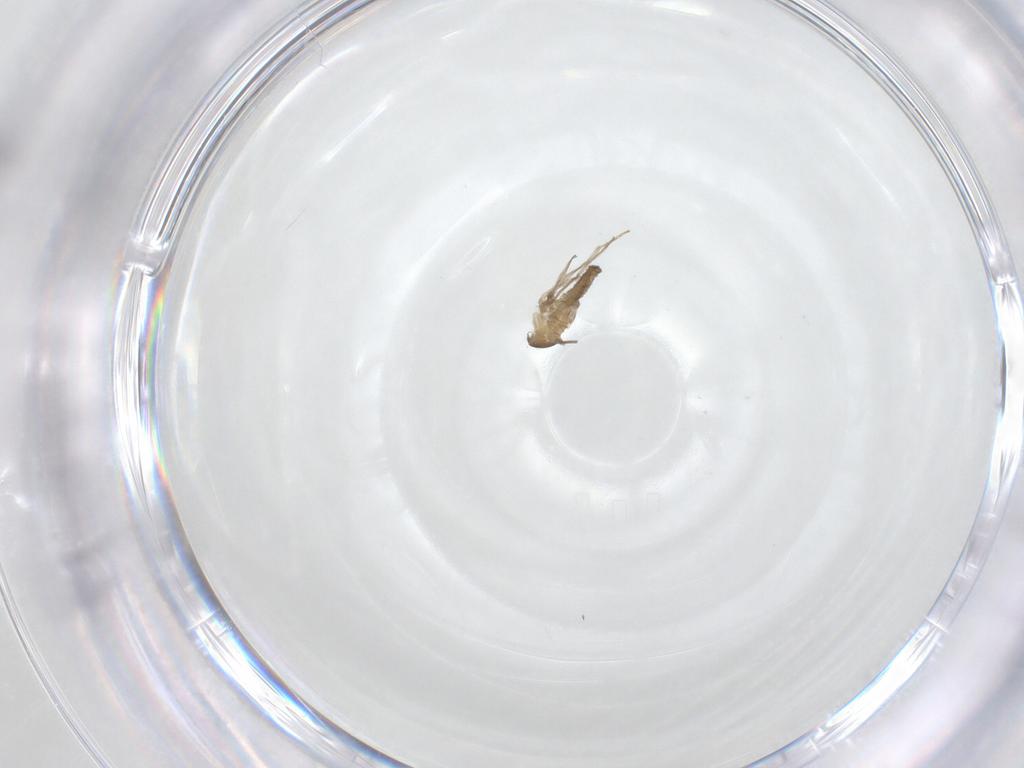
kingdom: Animalia
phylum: Arthropoda
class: Insecta
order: Diptera
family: Cecidomyiidae
